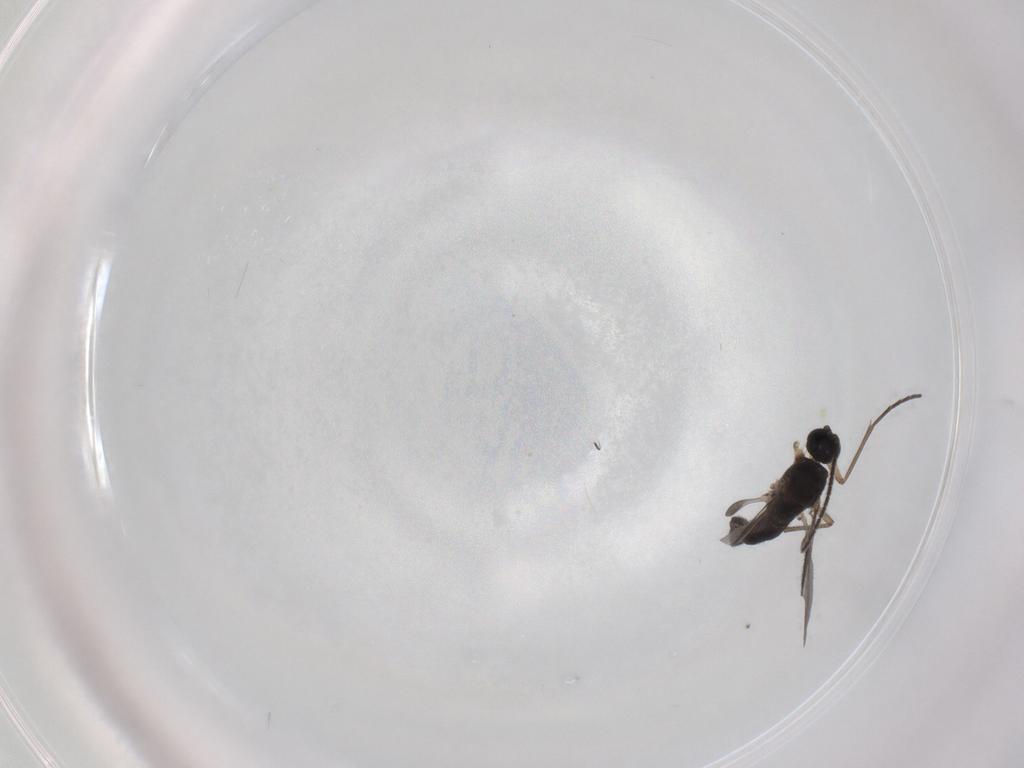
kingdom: Animalia
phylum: Arthropoda
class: Insecta
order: Diptera
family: Sciaridae
